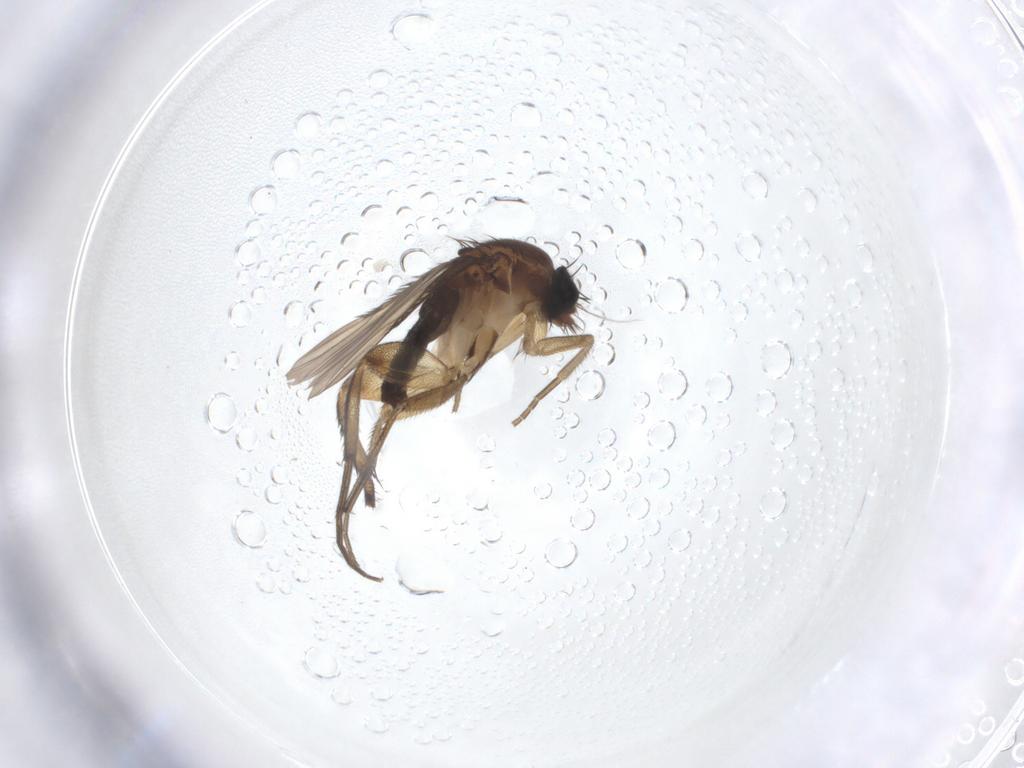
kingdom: Animalia
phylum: Arthropoda
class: Insecta
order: Diptera
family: Phoridae
